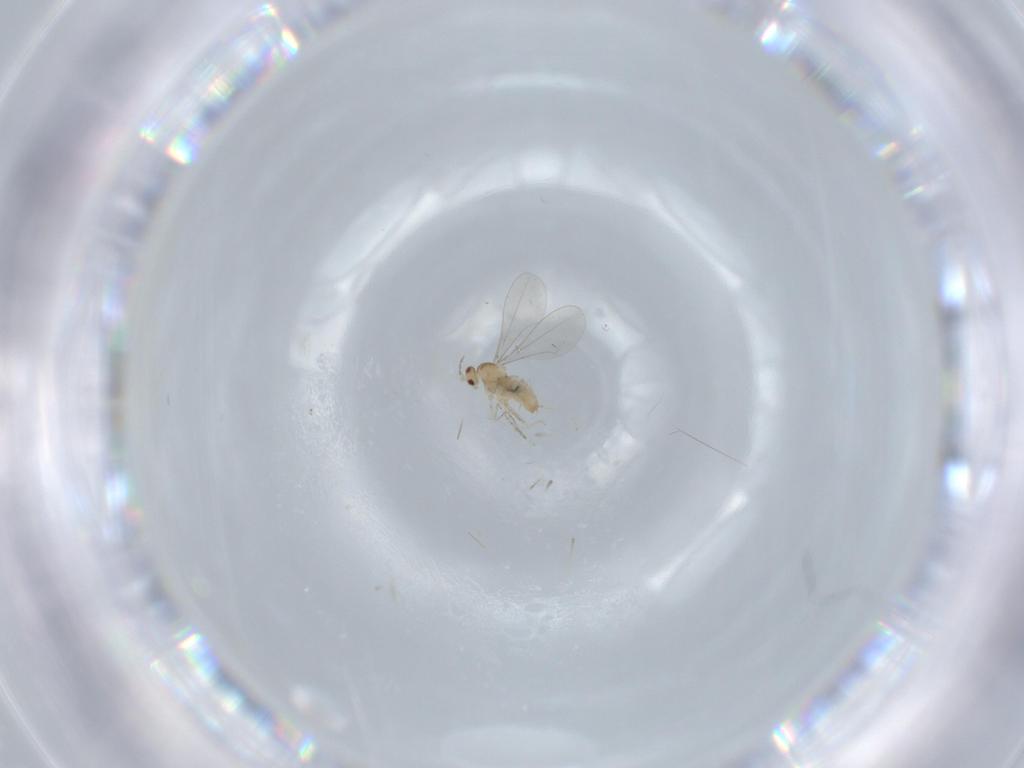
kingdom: Animalia
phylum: Arthropoda
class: Insecta
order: Diptera
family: Cecidomyiidae
